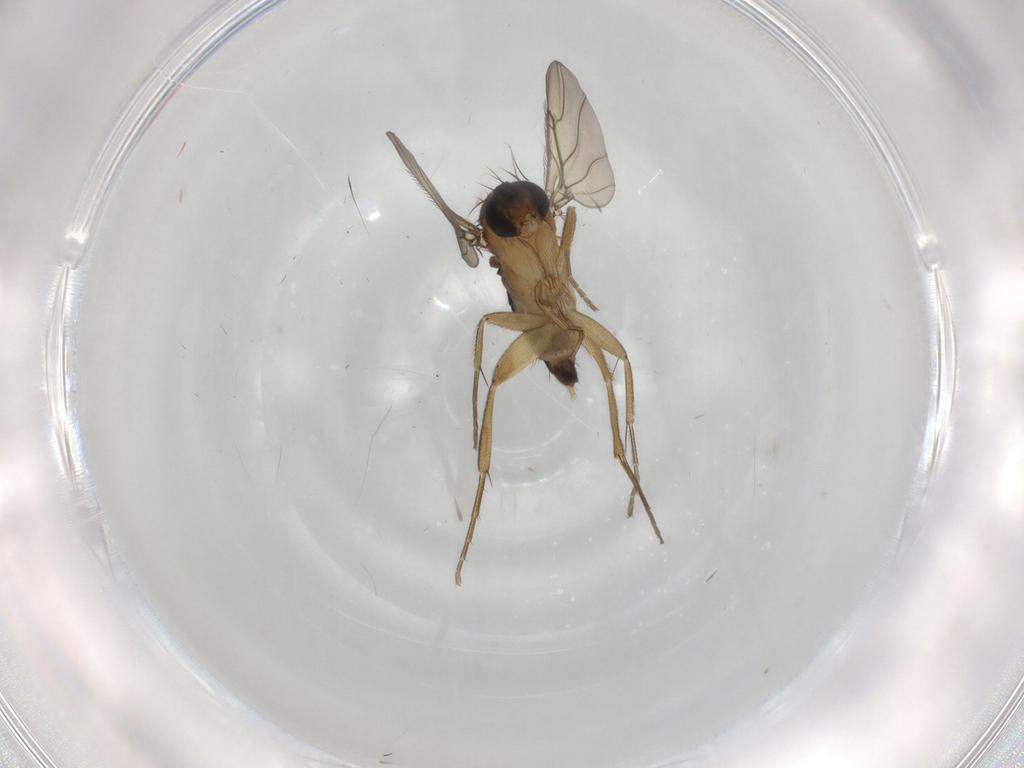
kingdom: Animalia
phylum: Arthropoda
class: Insecta
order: Diptera
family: Phoridae
